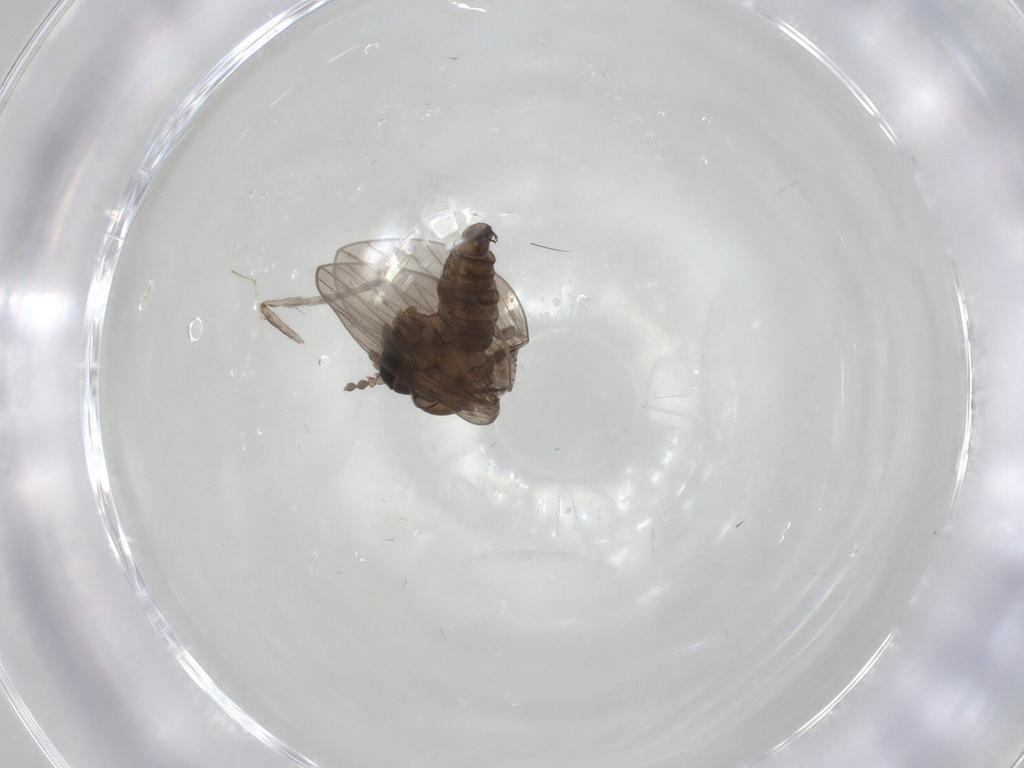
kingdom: Animalia
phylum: Arthropoda
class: Insecta
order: Diptera
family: Psychodidae
